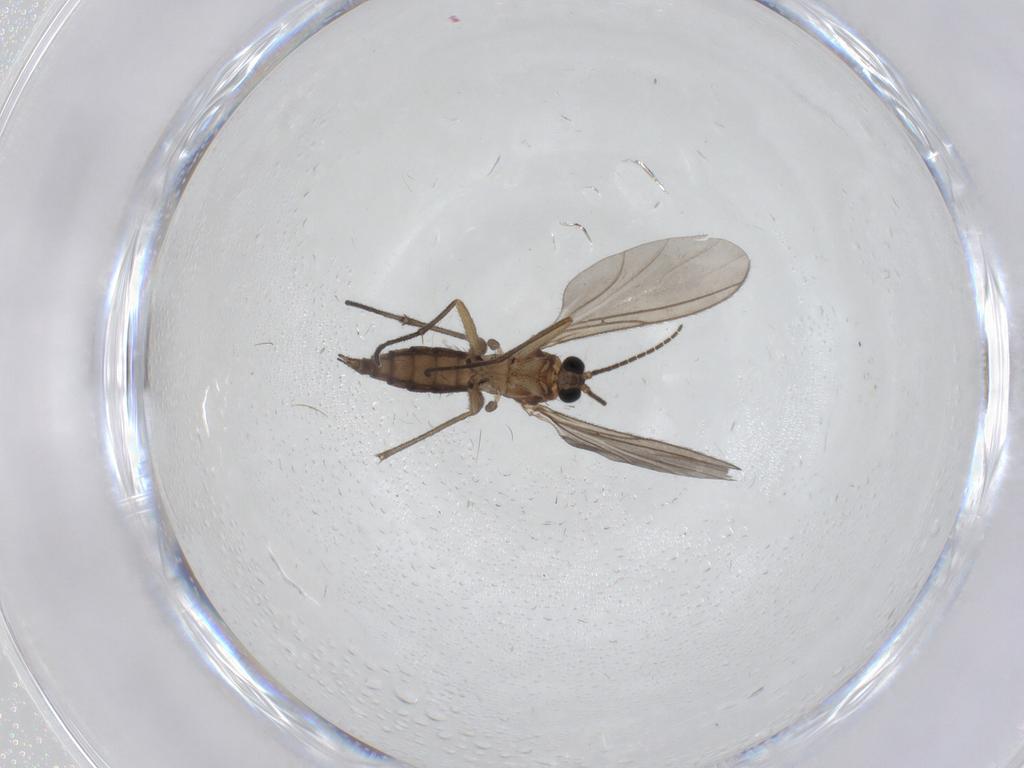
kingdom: Animalia
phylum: Arthropoda
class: Insecta
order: Diptera
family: Sciaridae
